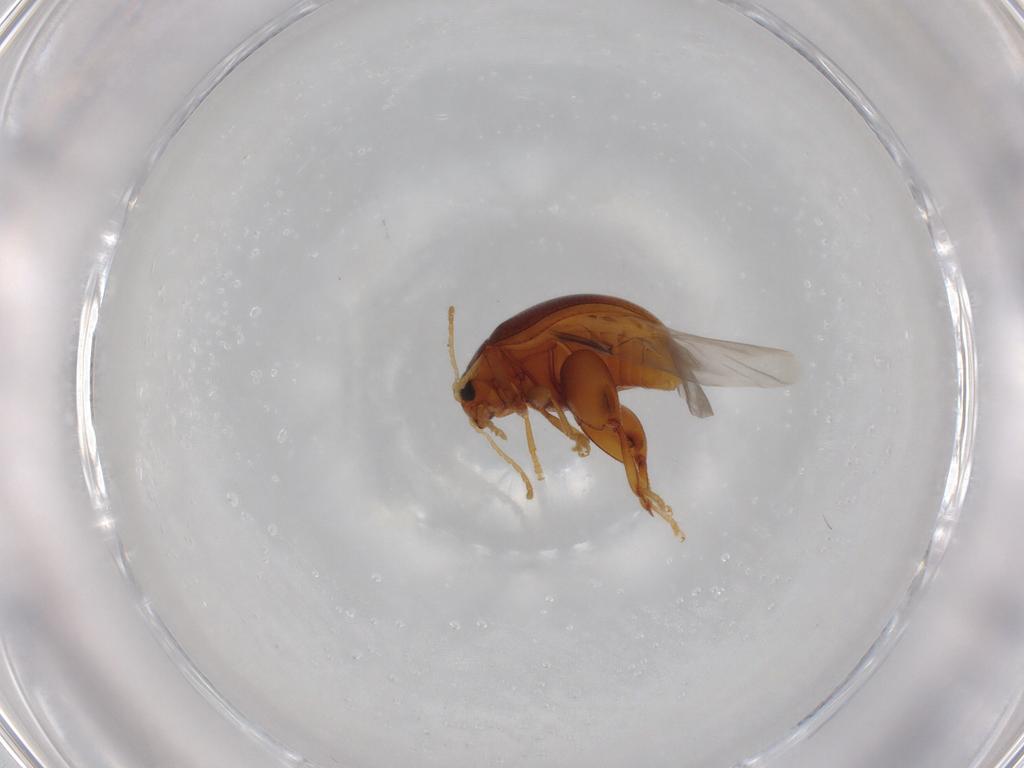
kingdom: Animalia
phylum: Arthropoda
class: Insecta
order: Coleoptera
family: Chrysomelidae
